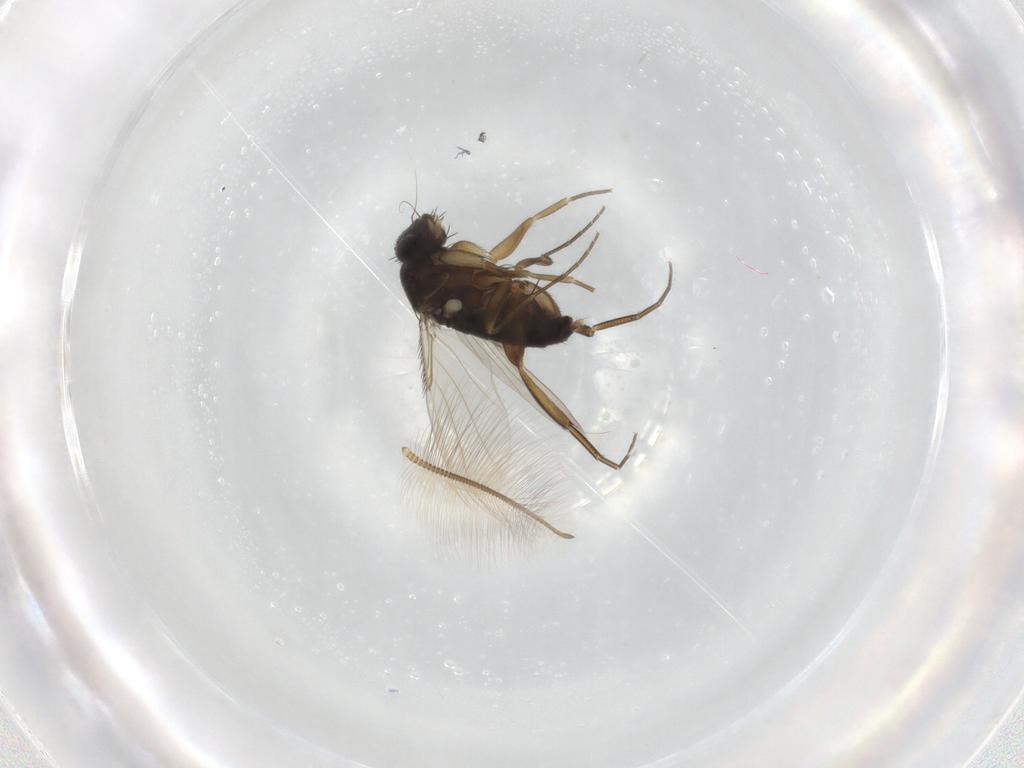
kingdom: Animalia
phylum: Arthropoda
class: Insecta
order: Diptera
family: Phoridae
